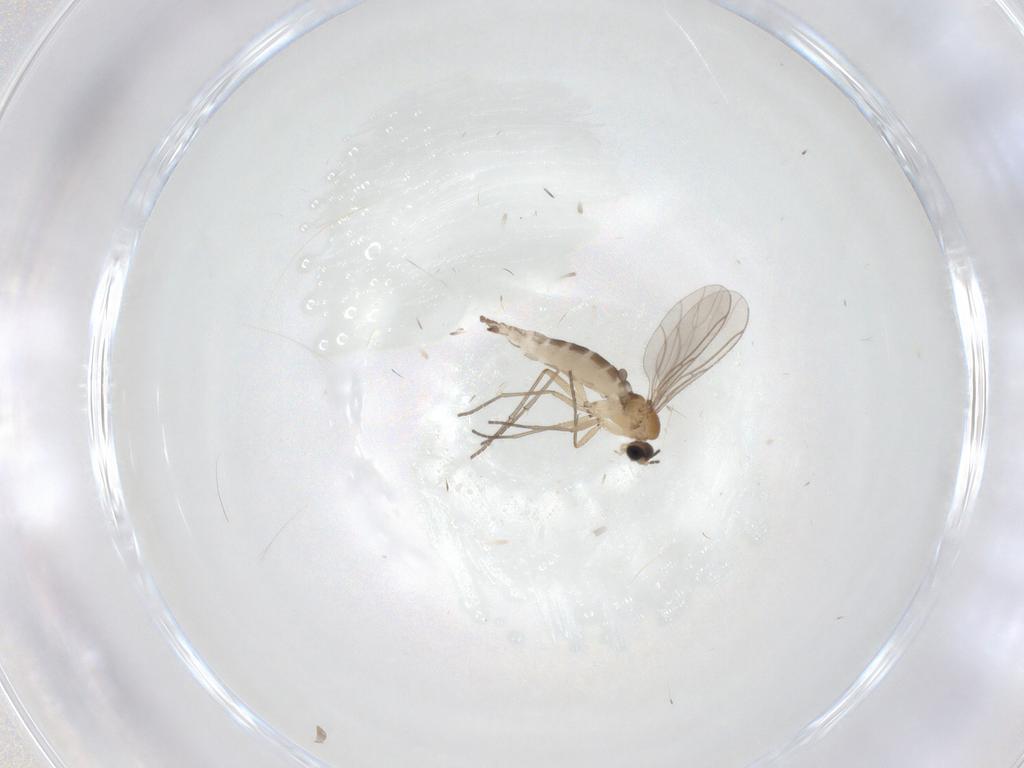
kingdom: Animalia
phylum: Arthropoda
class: Insecta
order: Diptera
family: Sciaridae
